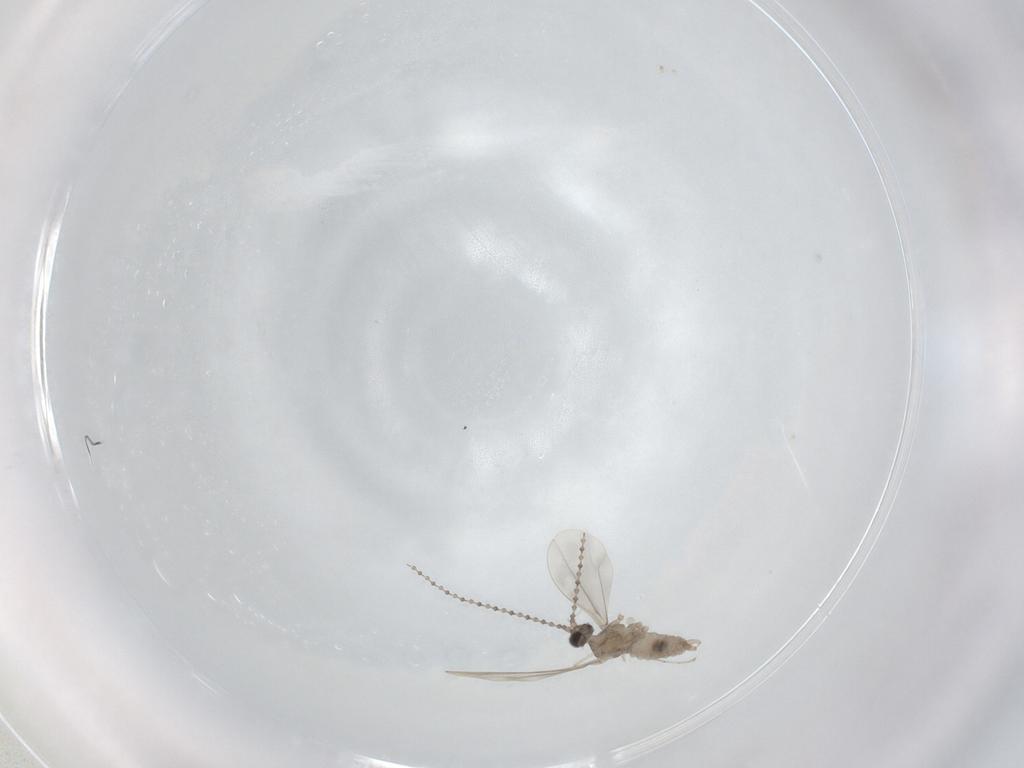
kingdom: Animalia
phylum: Arthropoda
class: Insecta
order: Diptera
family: Cecidomyiidae
